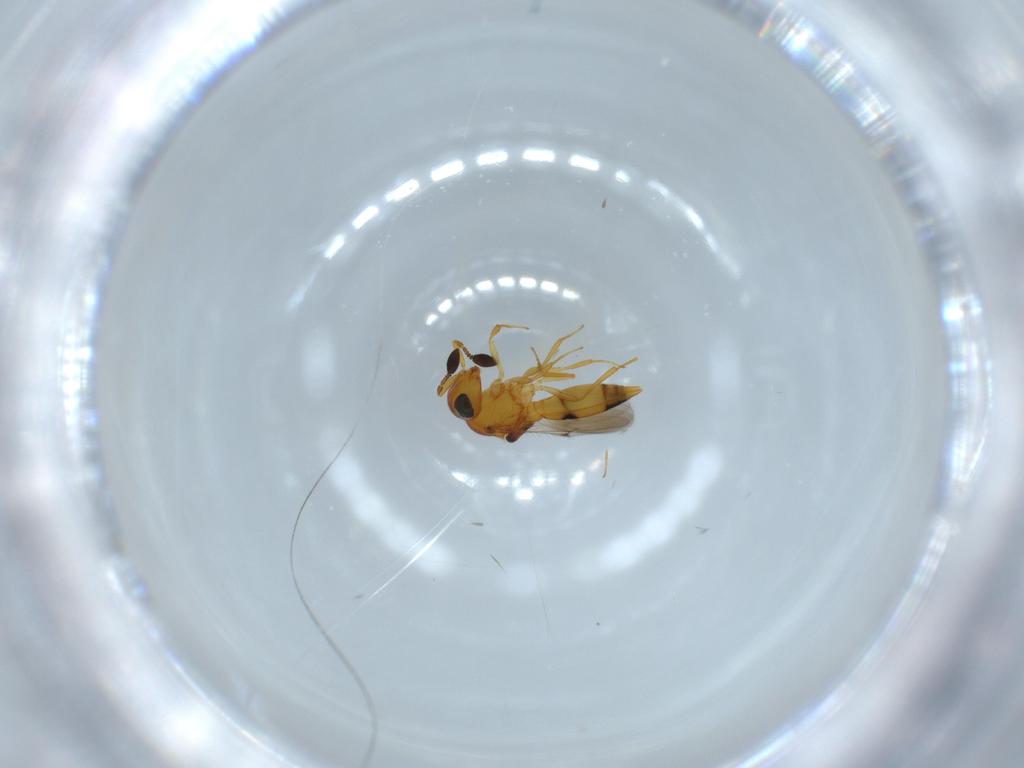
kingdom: Animalia
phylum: Arthropoda
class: Insecta
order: Hymenoptera
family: Scelionidae
